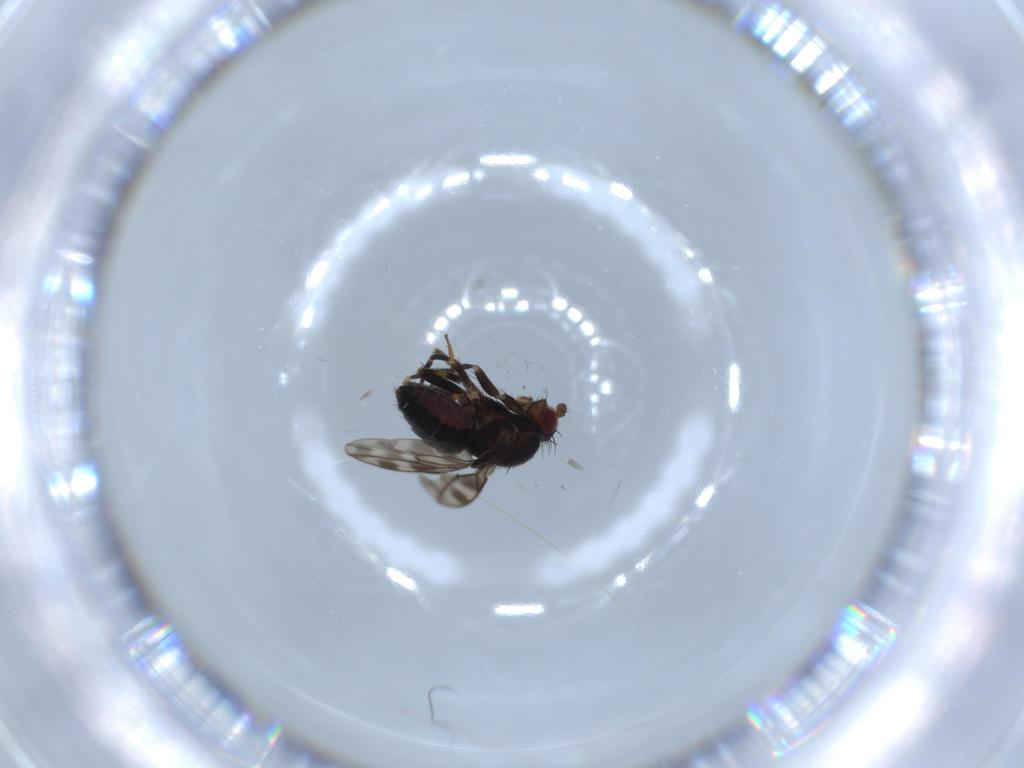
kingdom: Animalia
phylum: Arthropoda
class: Insecta
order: Diptera
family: Sphaeroceridae
